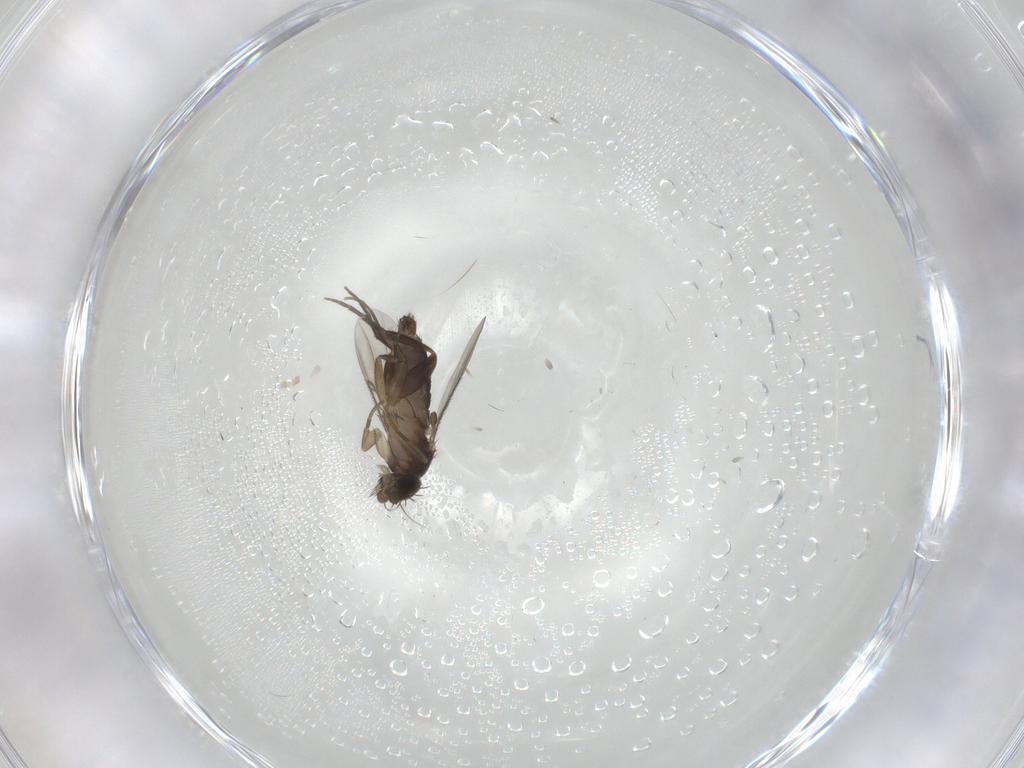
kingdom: Animalia
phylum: Arthropoda
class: Insecta
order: Diptera
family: Phoridae
